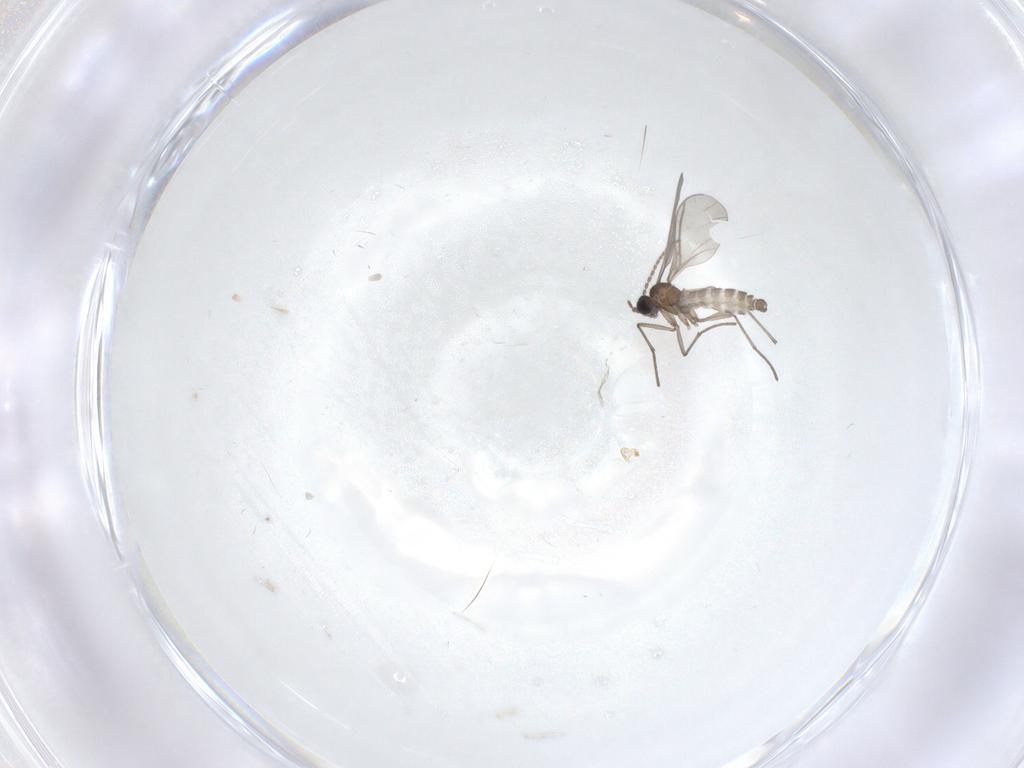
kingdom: Animalia
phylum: Arthropoda
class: Insecta
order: Diptera
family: Sciaridae
